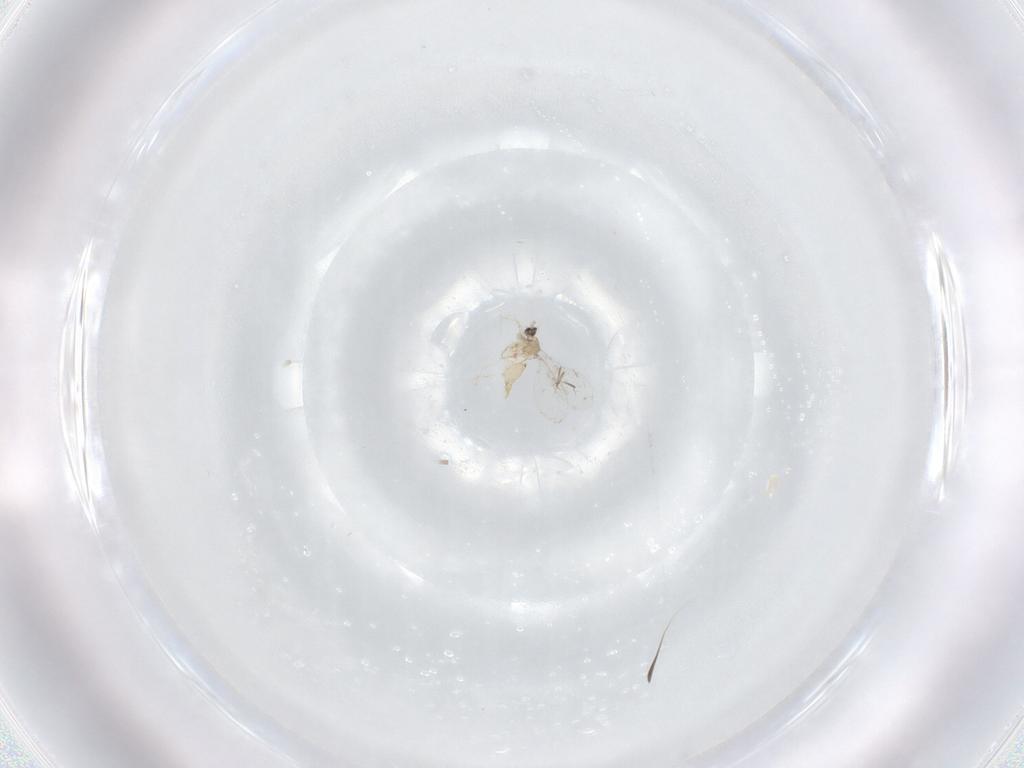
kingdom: Animalia
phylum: Arthropoda
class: Insecta
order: Diptera
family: Cecidomyiidae
